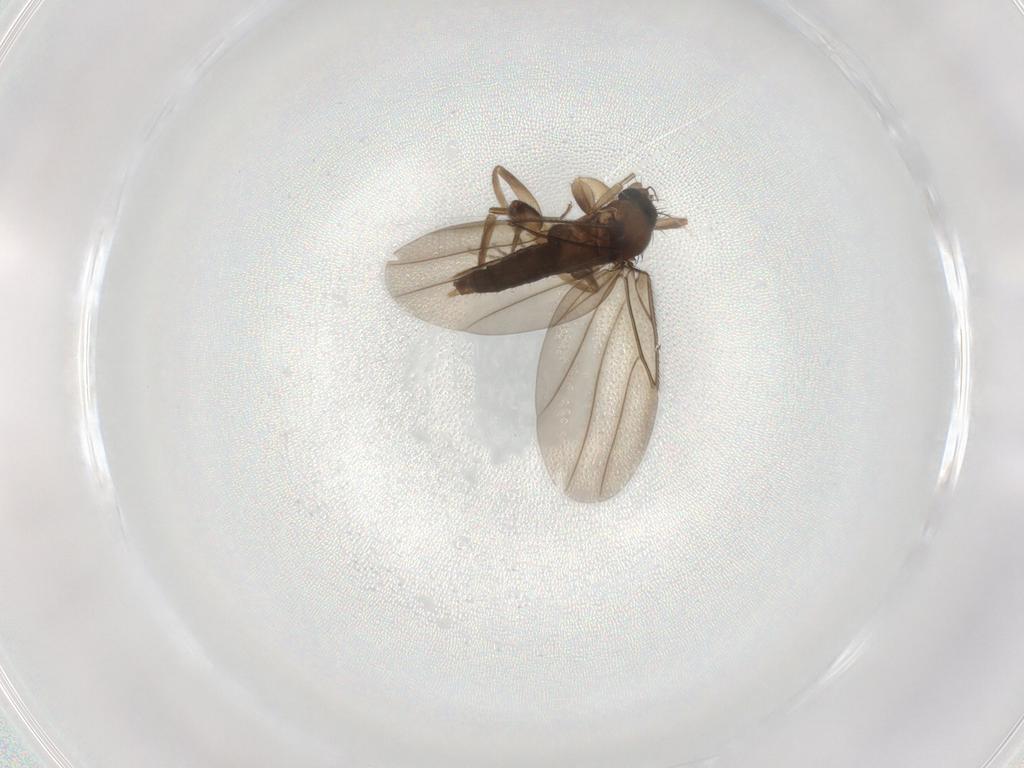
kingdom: Animalia
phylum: Arthropoda
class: Insecta
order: Diptera
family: Phoridae
